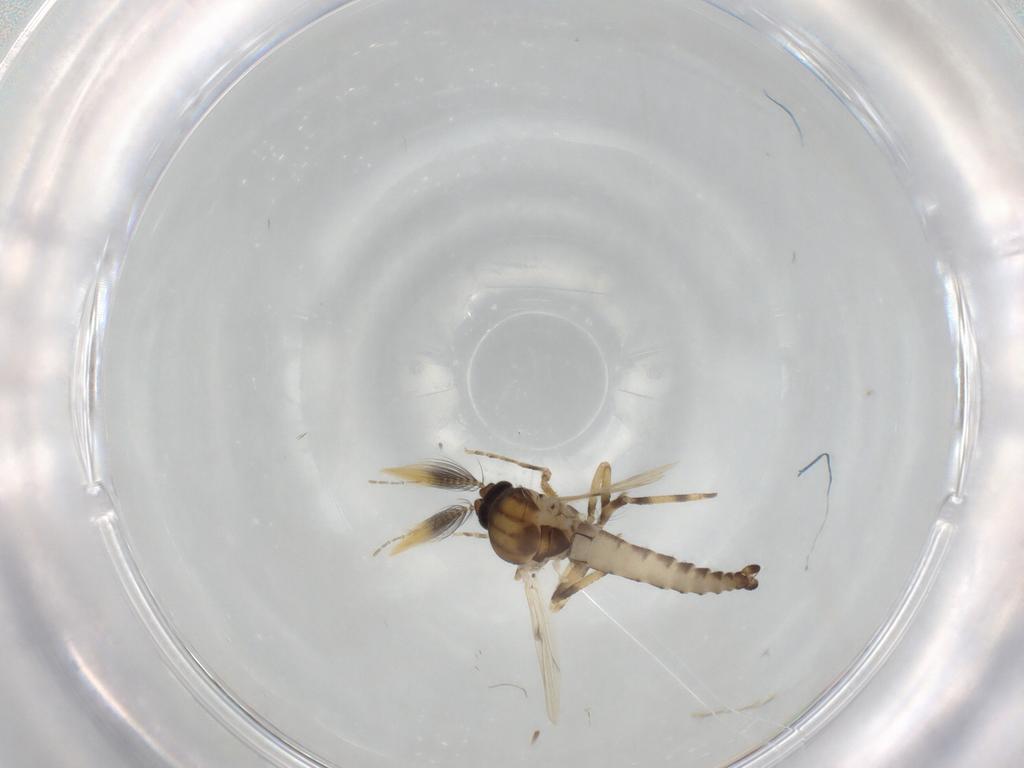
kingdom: Animalia
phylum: Arthropoda
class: Insecta
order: Diptera
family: Ceratopogonidae
